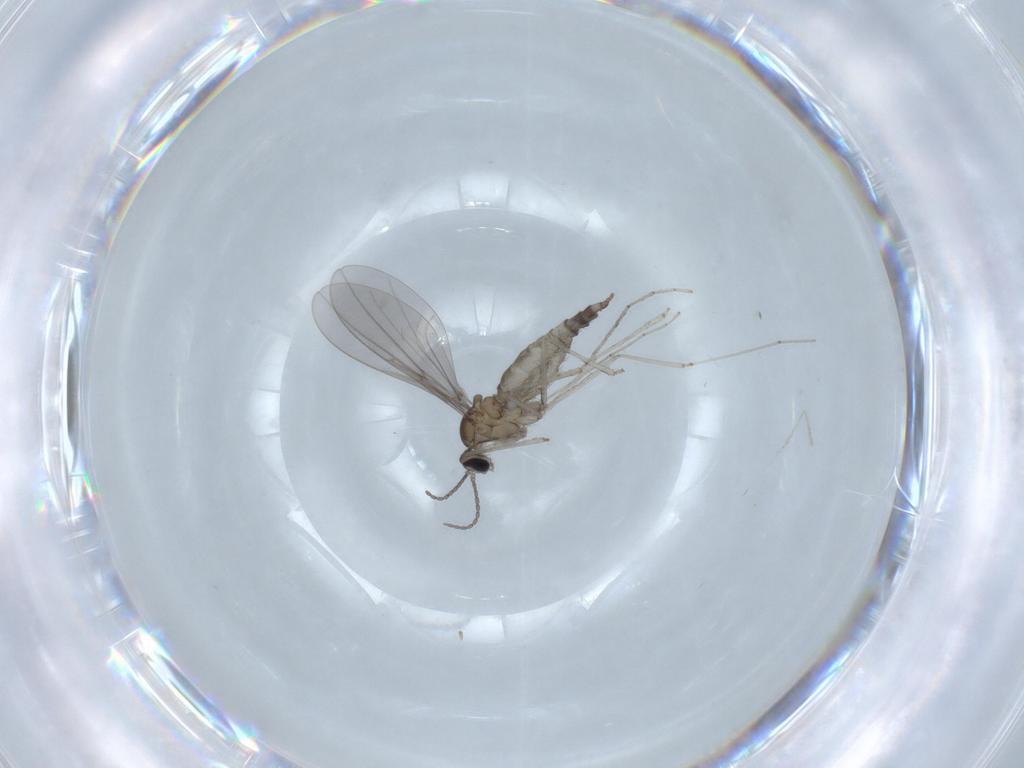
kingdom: Animalia
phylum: Arthropoda
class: Insecta
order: Diptera
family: Cecidomyiidae
